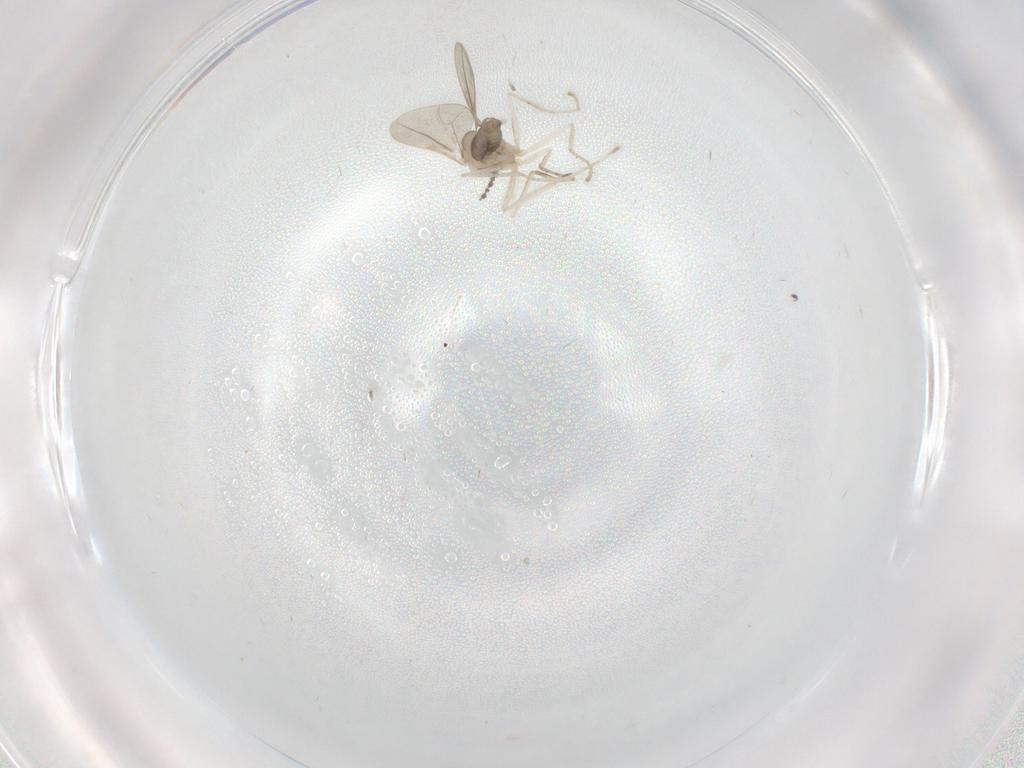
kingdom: Animalia
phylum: Arthropoda
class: Insecta
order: Diptera
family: Cecidomyiidae
